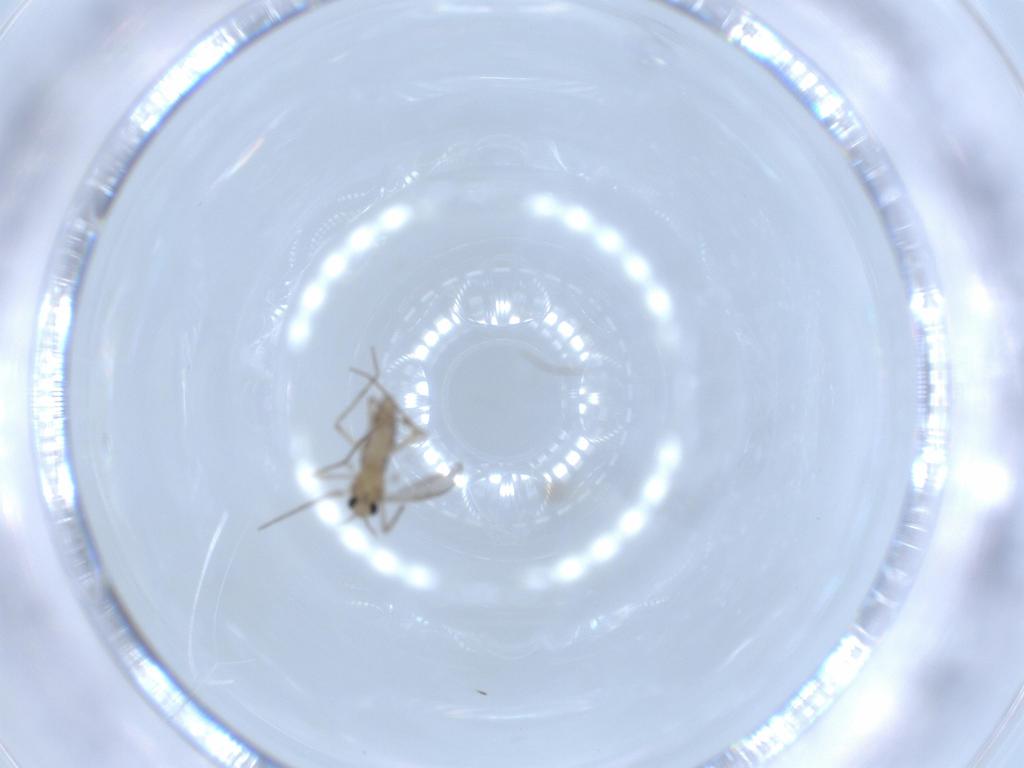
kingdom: Animalia
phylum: Arthropoda
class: Insecta
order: Diptera
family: Chironomidae
